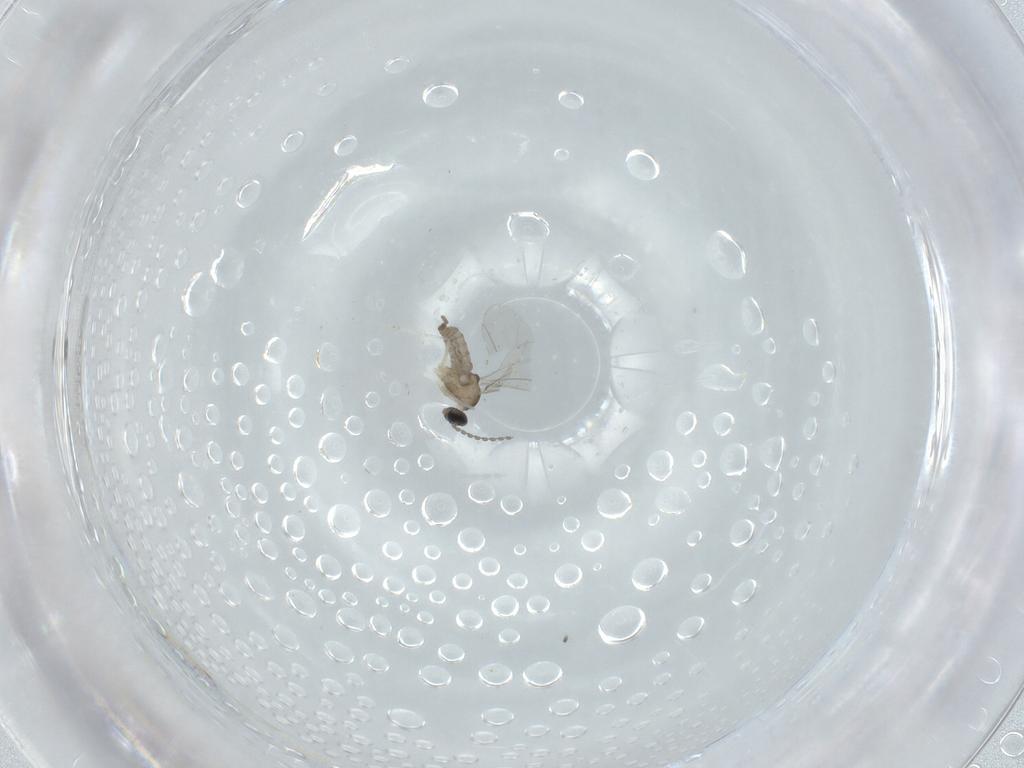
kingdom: Animalia
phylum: Arthropoda
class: Insecta
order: Diptera
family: Cecidomyiidae
